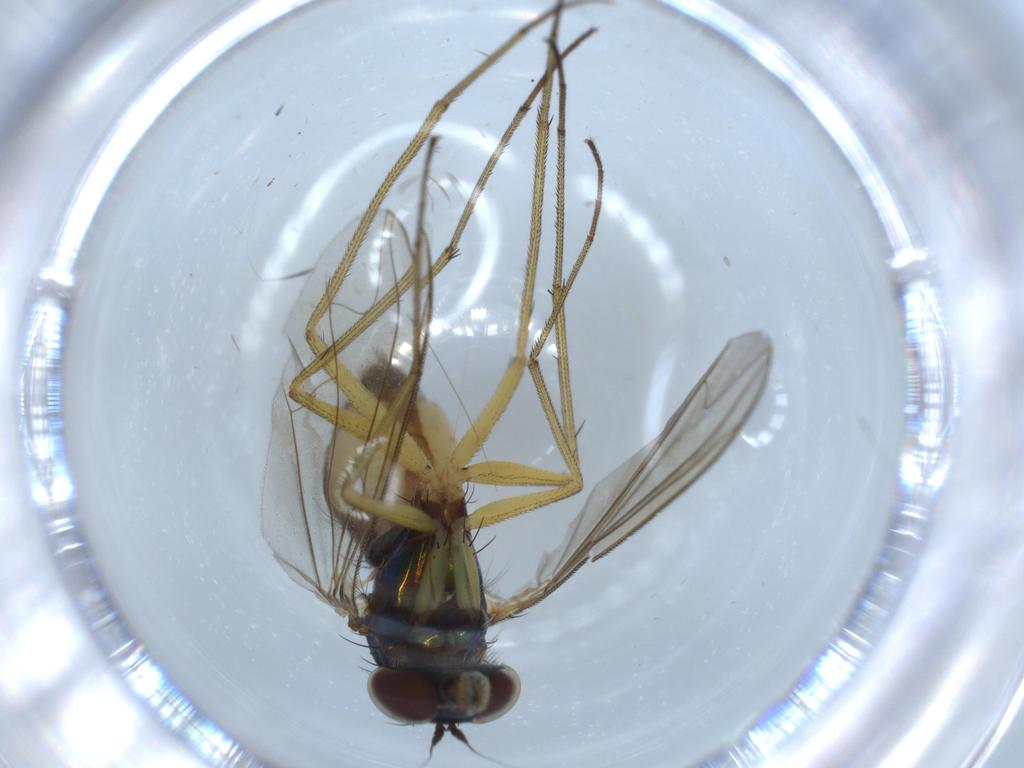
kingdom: Animalia
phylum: Arthropoda
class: Insecta
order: Diptera
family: Dolichopodidae
